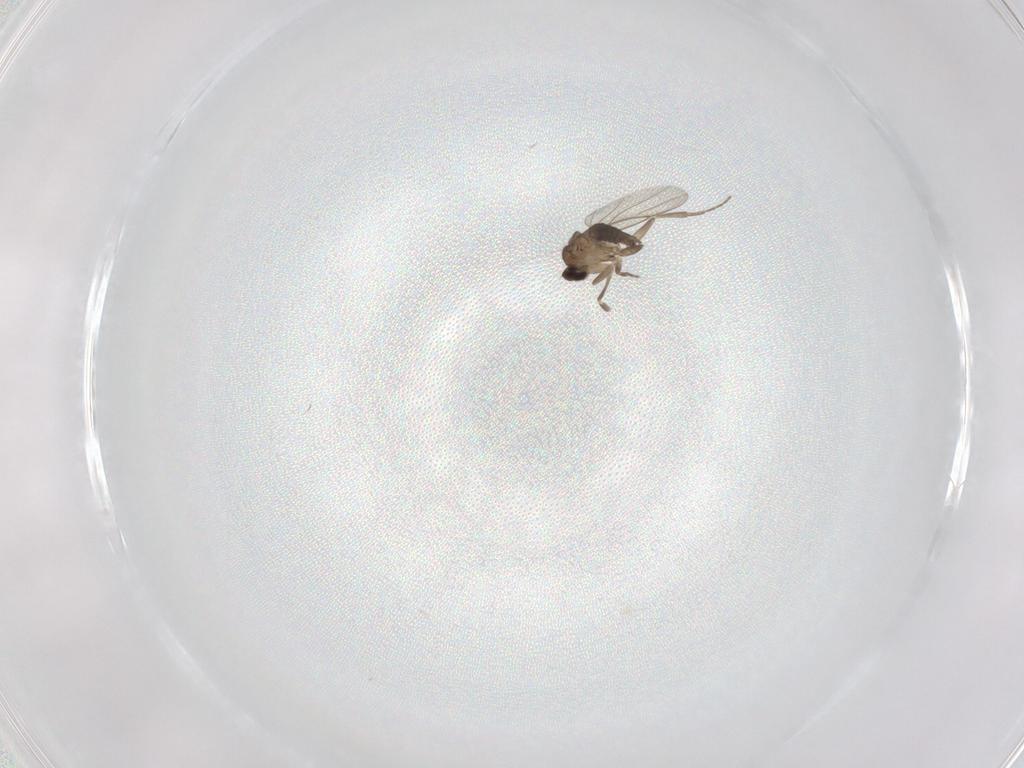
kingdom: Animalia
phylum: Arthropoda
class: Insecta
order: Diptera
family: Phoridae
